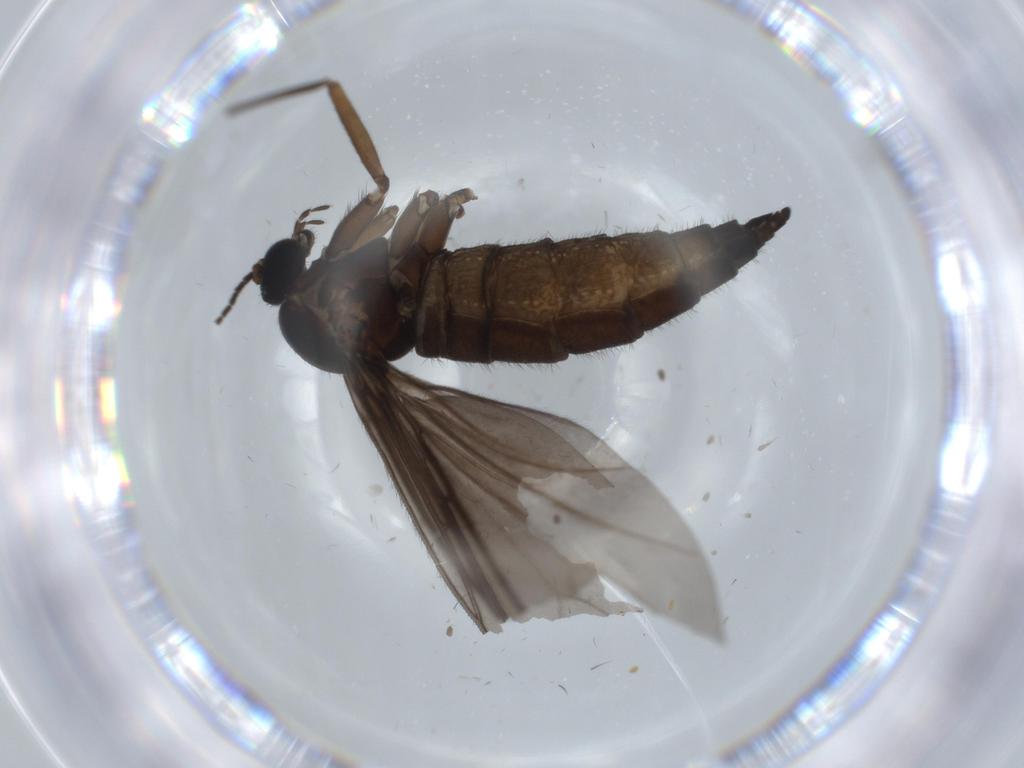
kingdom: Animalia
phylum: Arthropoda
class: Insecta
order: Diptera
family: Sciaridae
